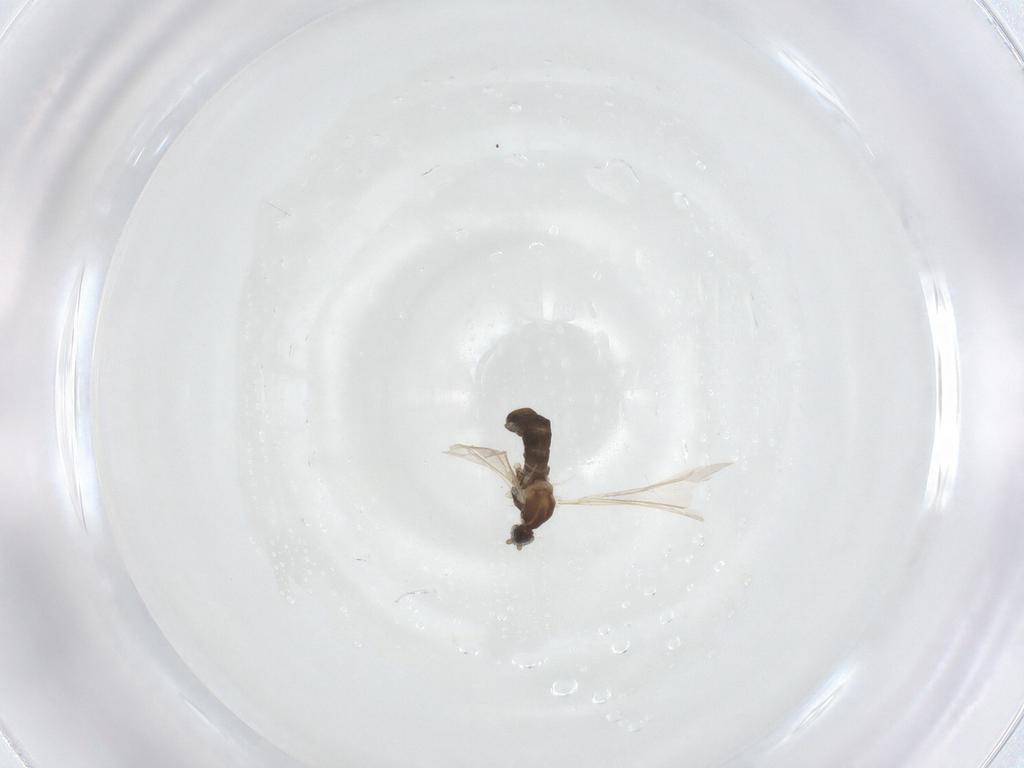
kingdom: Animalia
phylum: Arthropoda
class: Insecta
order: Diptera
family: Cecidomyiidae
